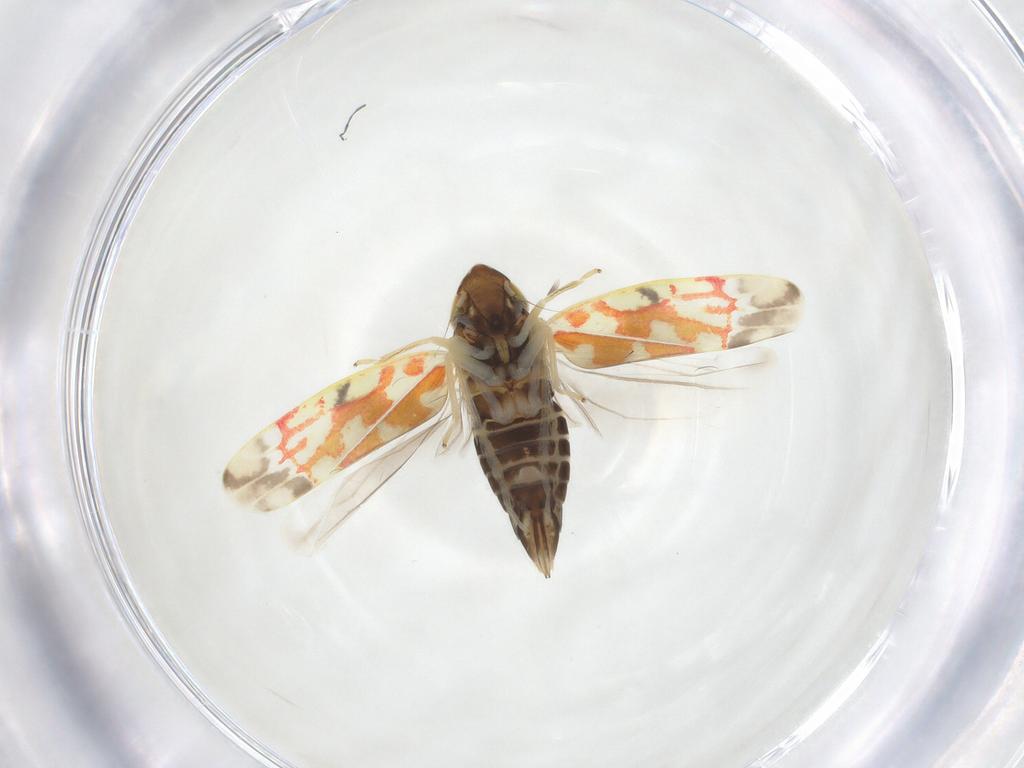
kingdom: Animalia
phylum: Arthropoda
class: Insecta
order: Hemiptera
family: Cicadellidae
